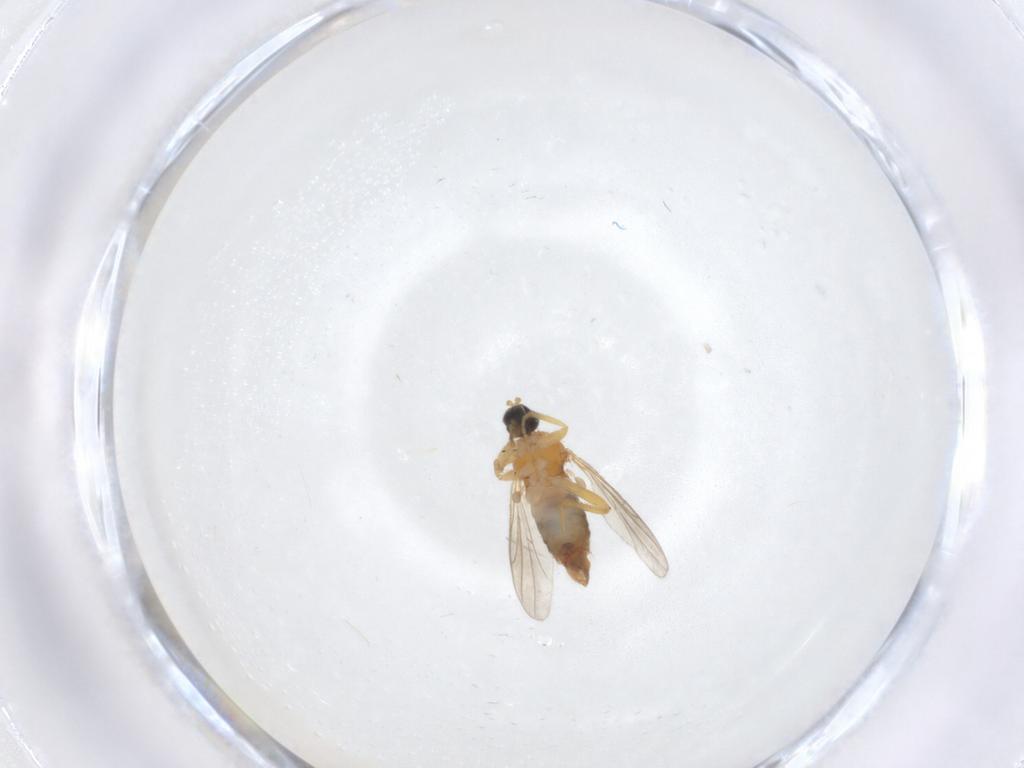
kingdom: Animalia
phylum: Arthropoda
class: Insecta
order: Diptera
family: Hybotidae
